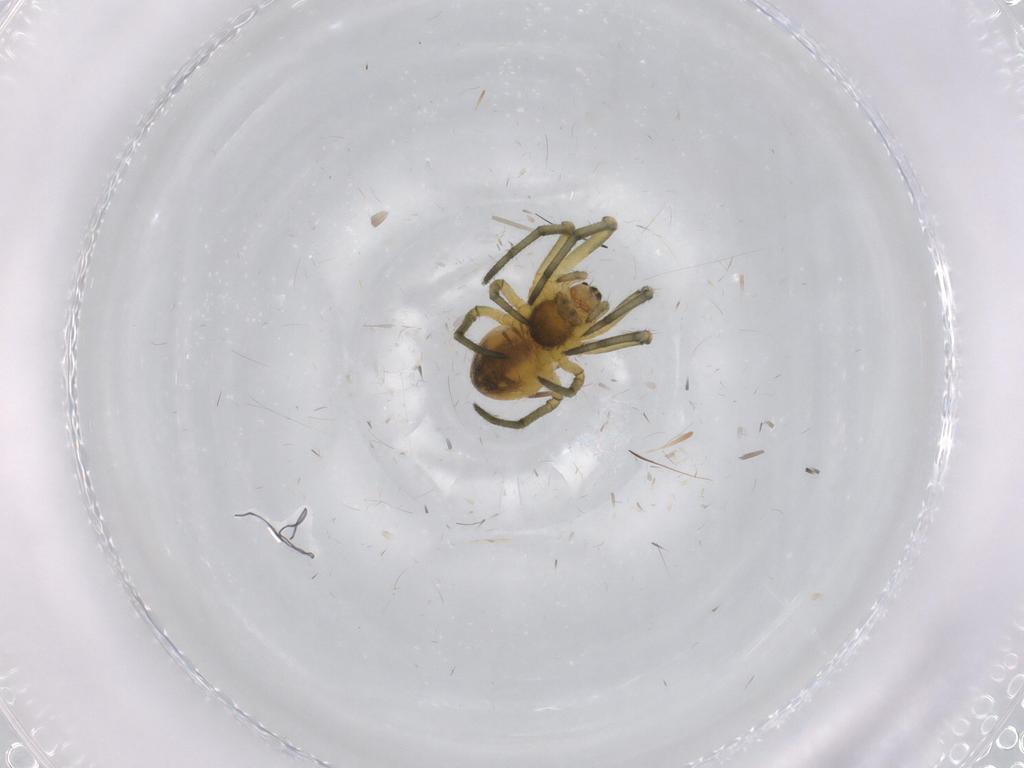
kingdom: Animalia
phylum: Arthropoda
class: Arachnida
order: Araneae
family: Tetragnathidae
